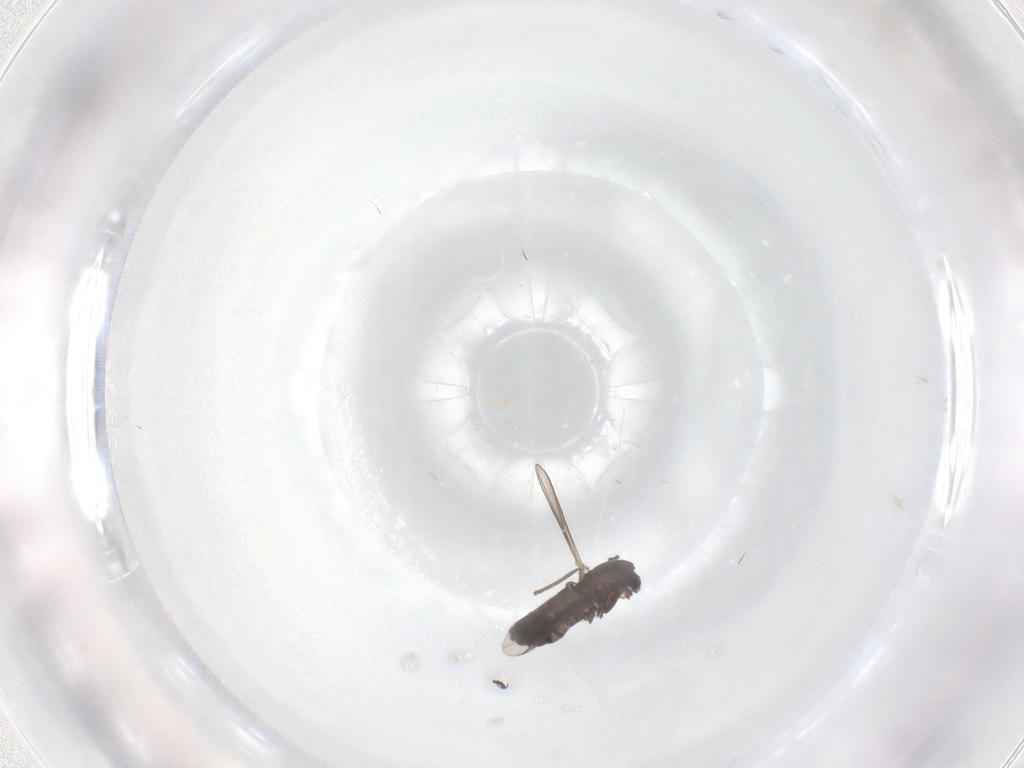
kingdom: Animalia
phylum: Arthropoda
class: Insecta
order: Diptera
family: Chironomidae
